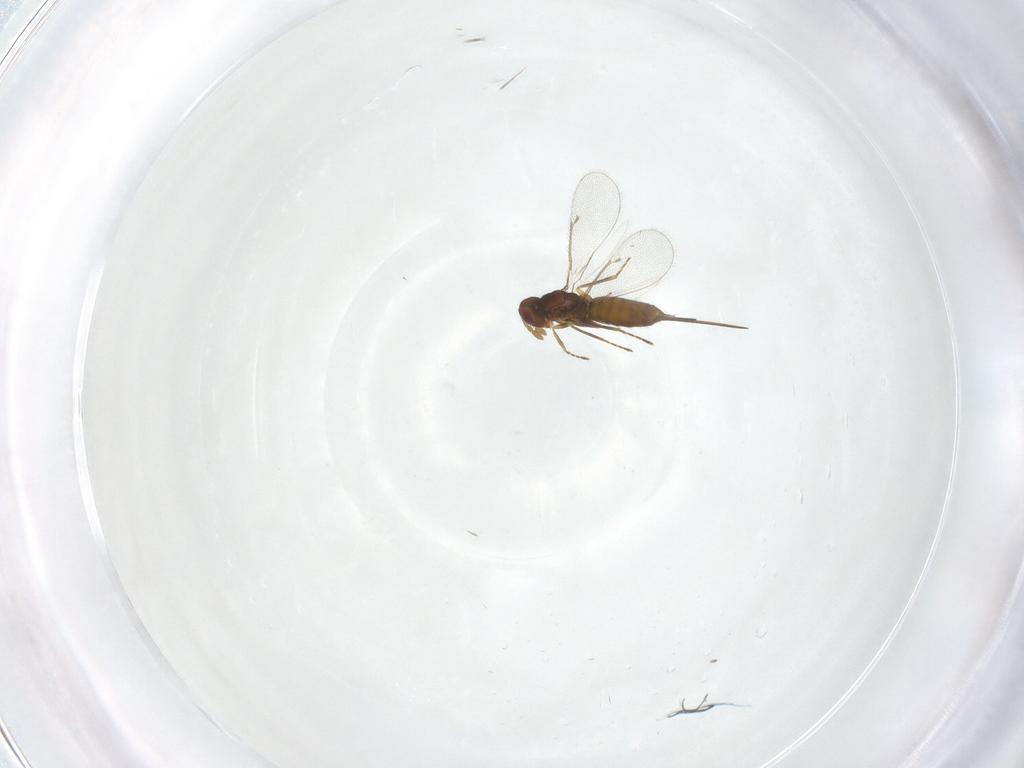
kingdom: Animalia
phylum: Arthropoda
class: Insecta
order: Hymenoptera
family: Eulophidae
